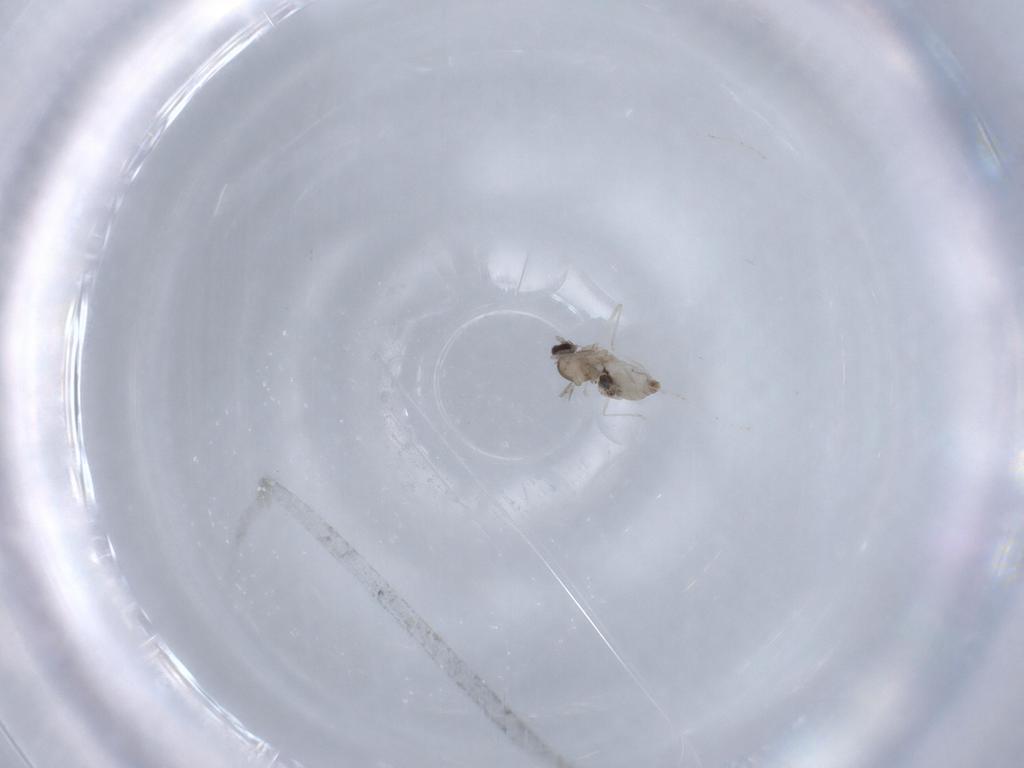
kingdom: Animalia
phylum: Arthropoda
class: Insecta
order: Diptera
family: Cecidomyiidae
